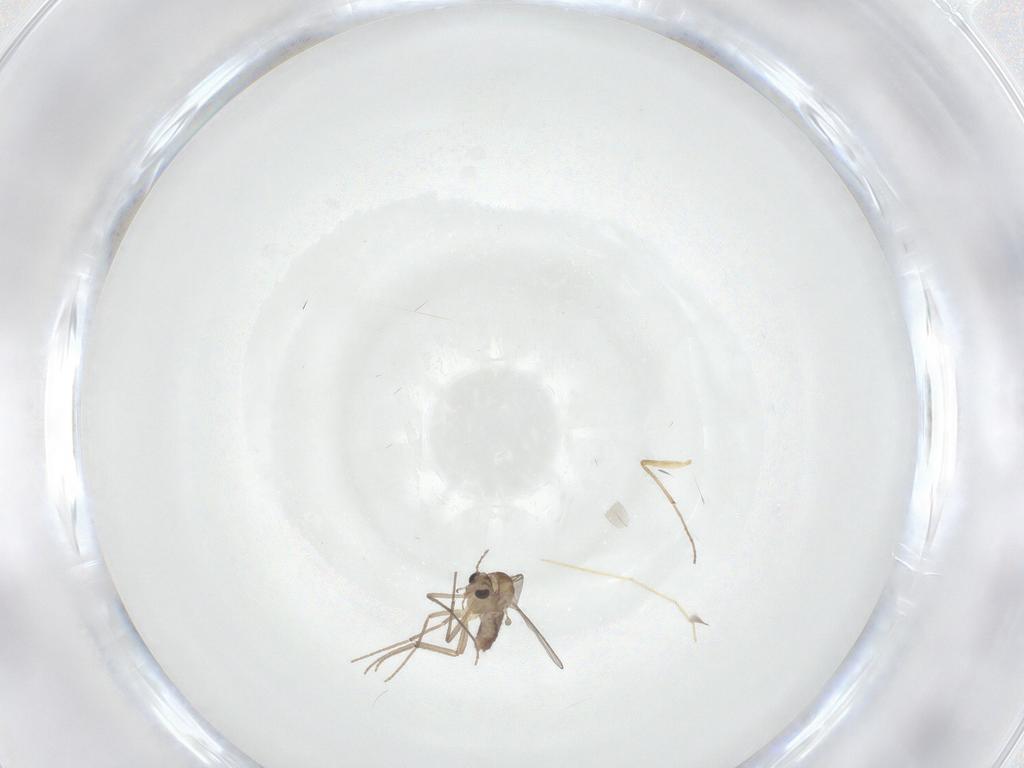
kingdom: Animalia
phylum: Arthropoda
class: Insecta
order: Diptera
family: Chironomidae
